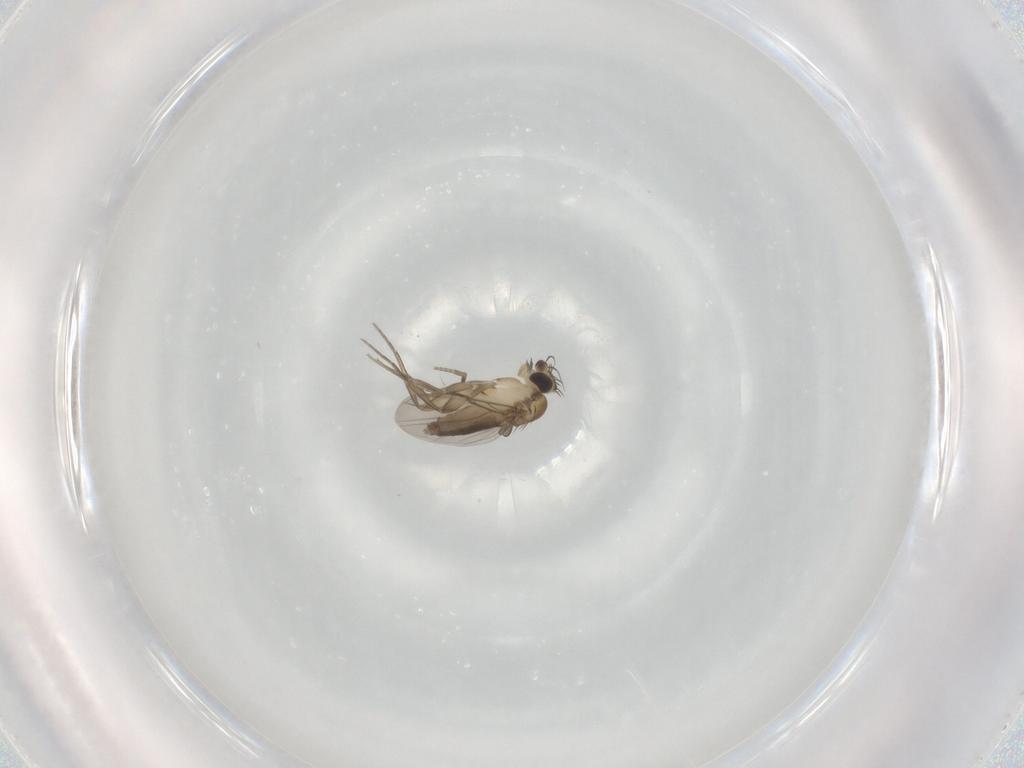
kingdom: Animalia
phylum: Arthropoda
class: Insecta
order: Diptera
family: Phoridae
